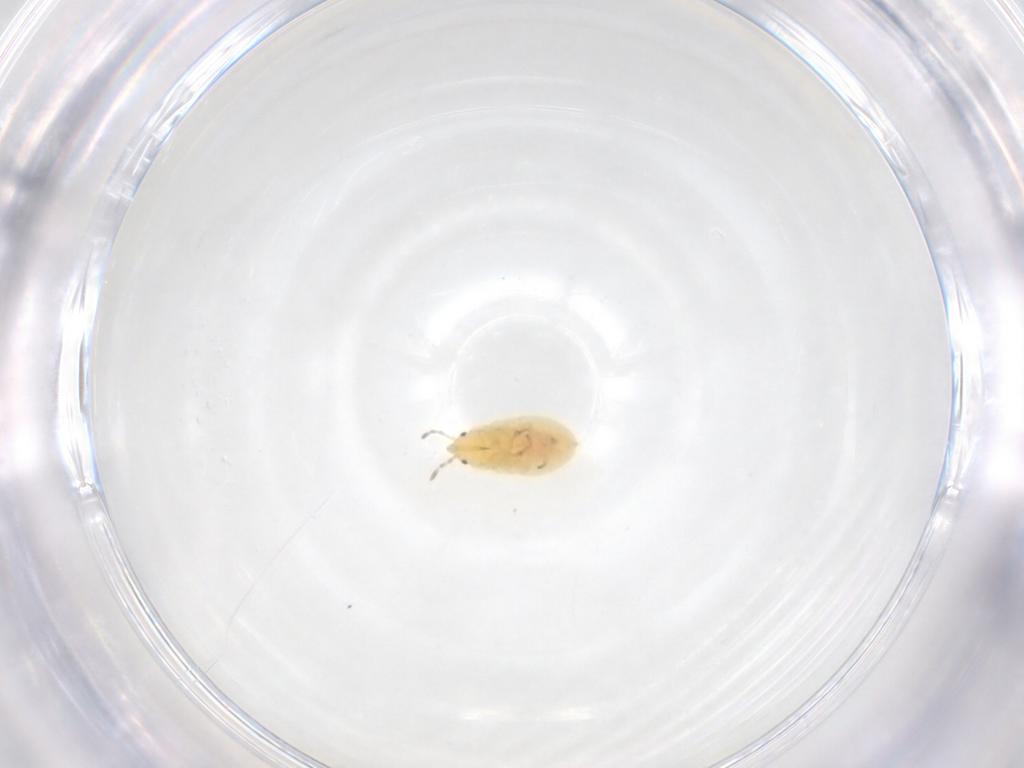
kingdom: Animalia
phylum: Arthropoda
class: Insecta
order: Hemiptera
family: Anthocoridae
